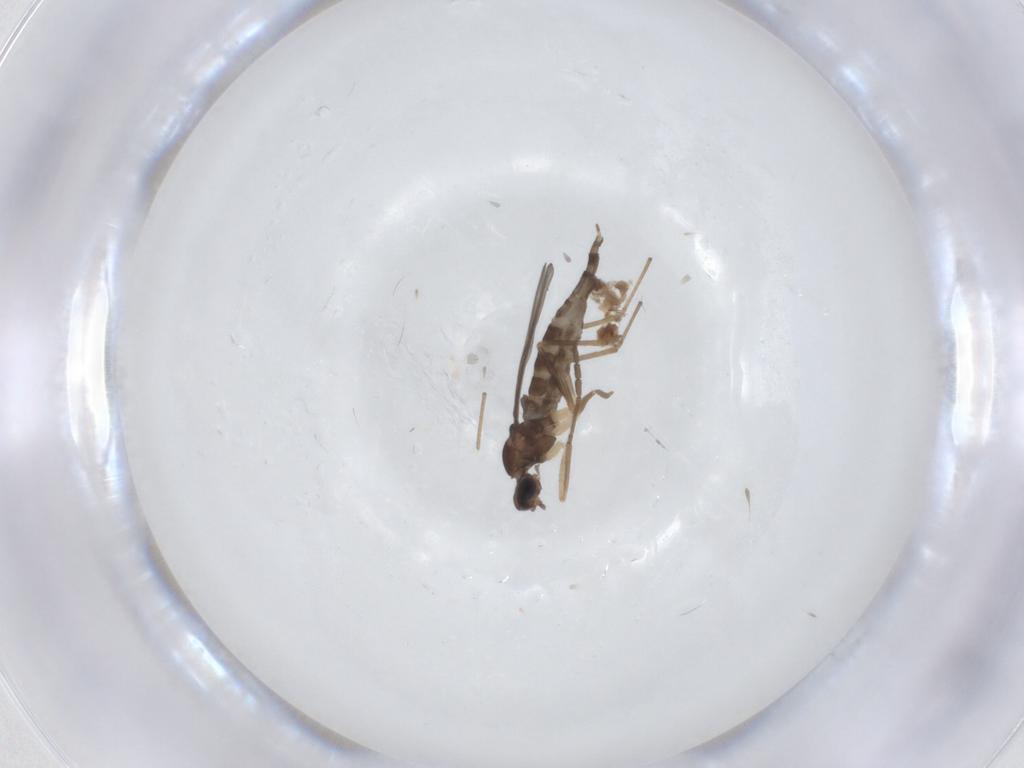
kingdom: Animalia
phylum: Arthropoda
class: Insecta
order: Diptera
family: Ceratopogonidae
